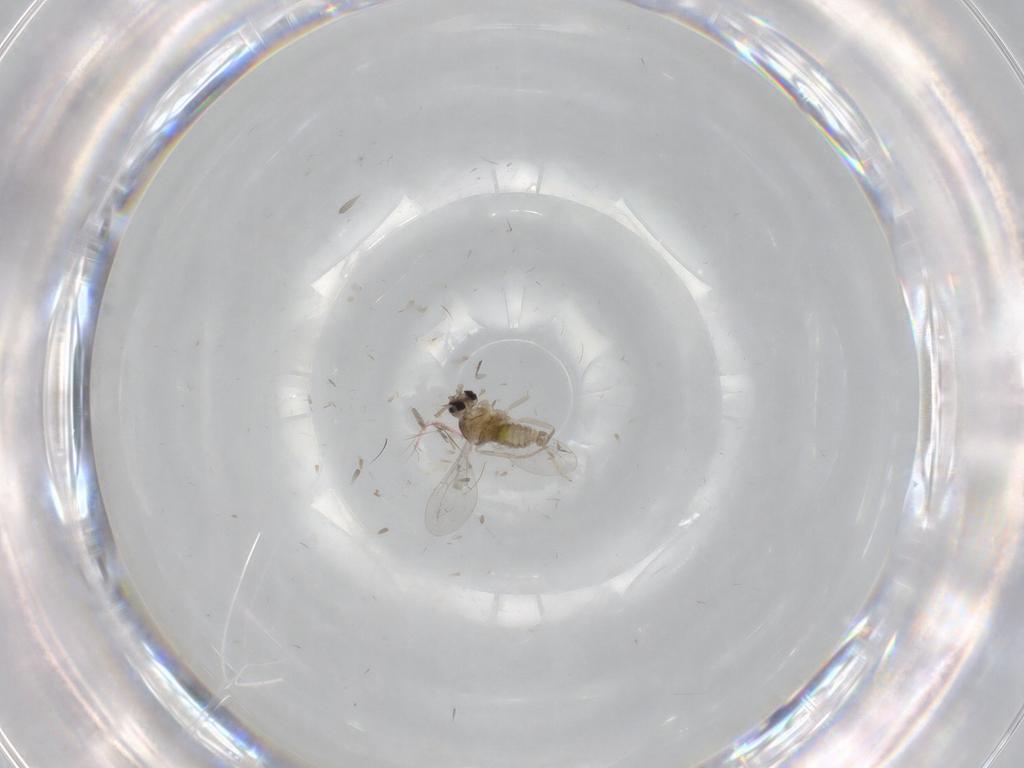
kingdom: Animalia
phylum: Arthropoda
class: Insecta
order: Diptera
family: Cecidomyiidae
